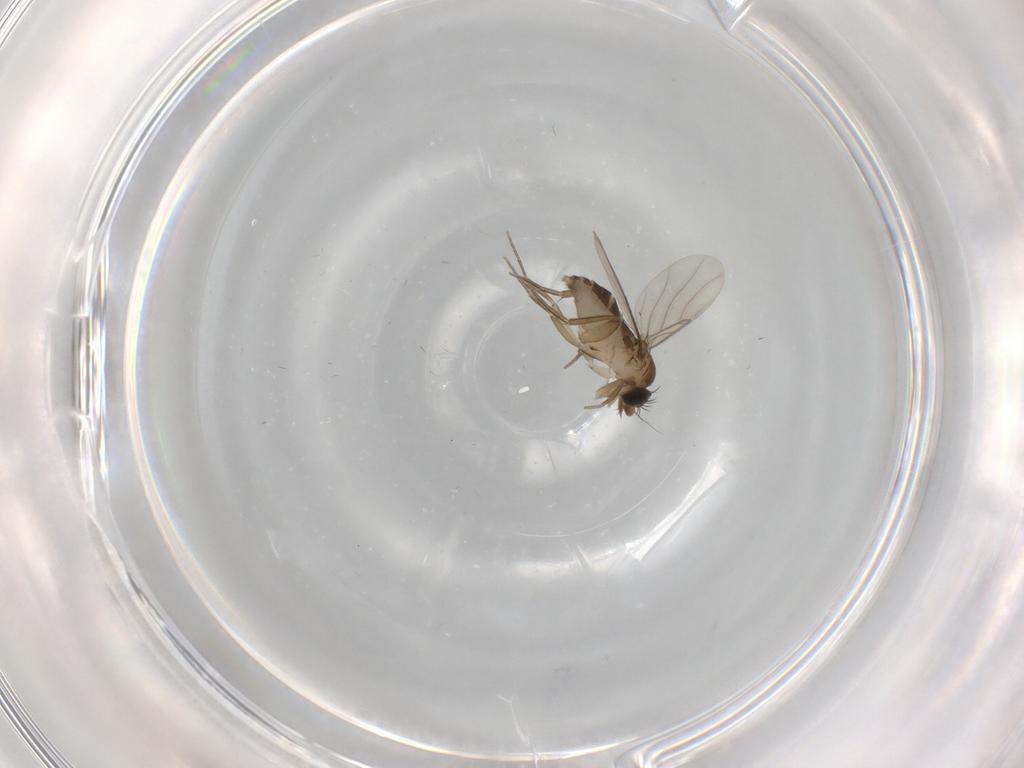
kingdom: Animalia
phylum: Arthropoda
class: Insecta
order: Diptera
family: Phoridae
